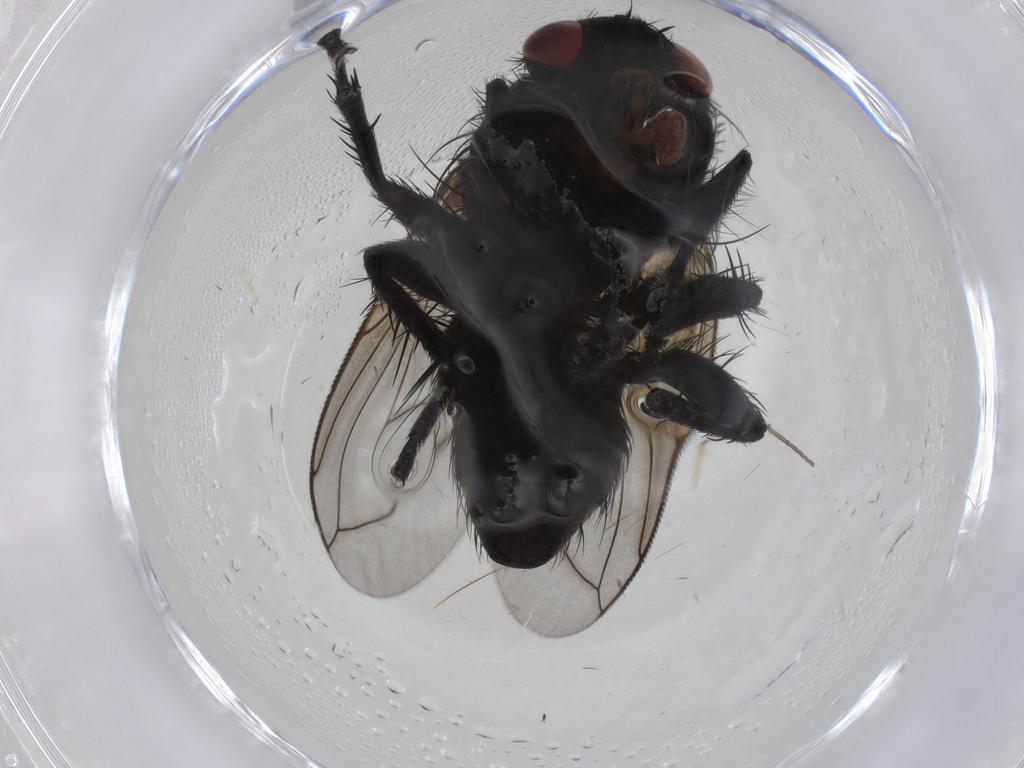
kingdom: Animalia
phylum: Arthropoda
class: Insecta
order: Diptera
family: Tachinidae
